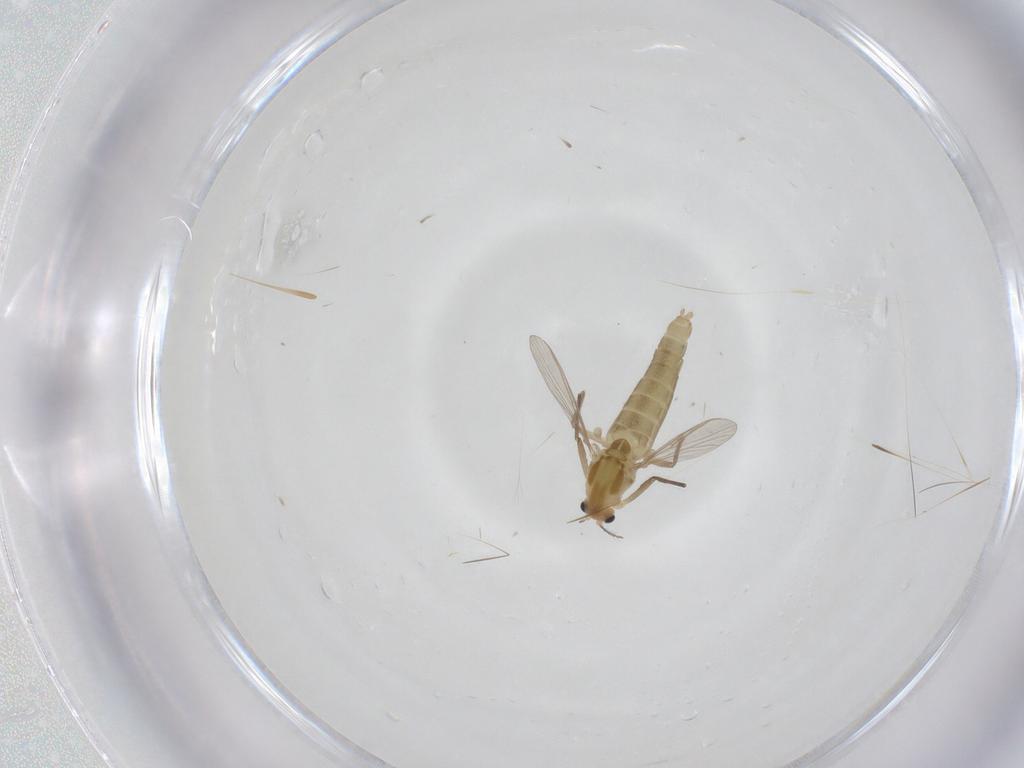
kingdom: Animalia
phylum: Arthropoda
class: Insecta
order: Diptera
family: Chironomidae
